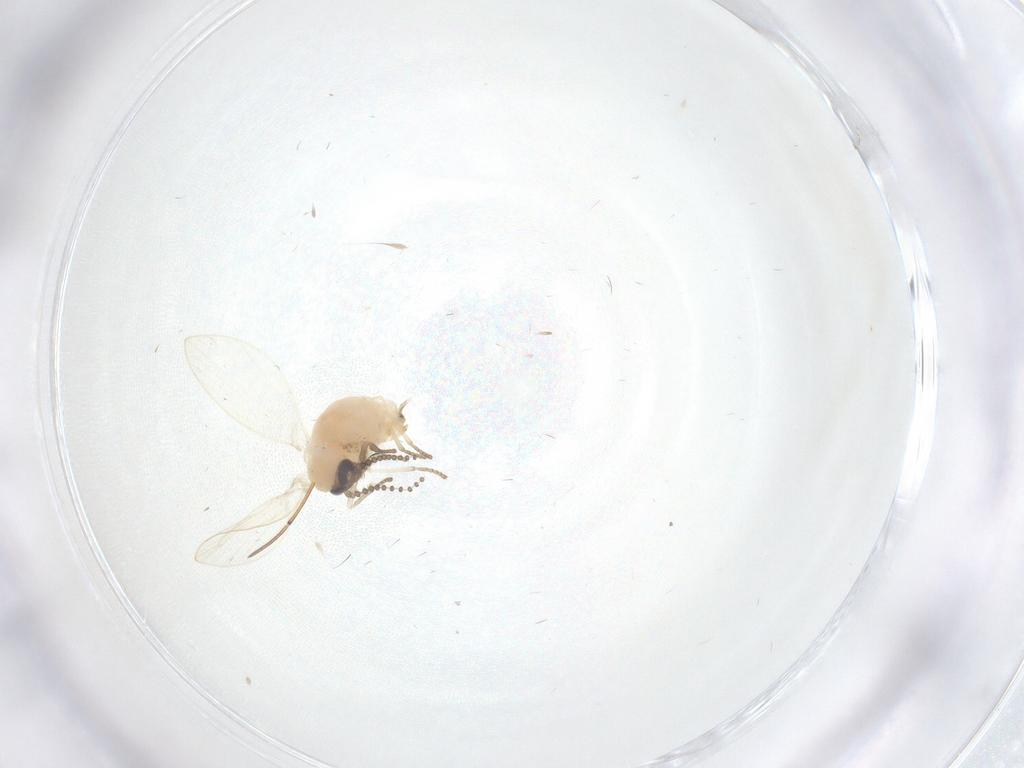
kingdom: Animalia
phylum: Arthropoda
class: Insecta
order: Diptera
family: Psychodidae
